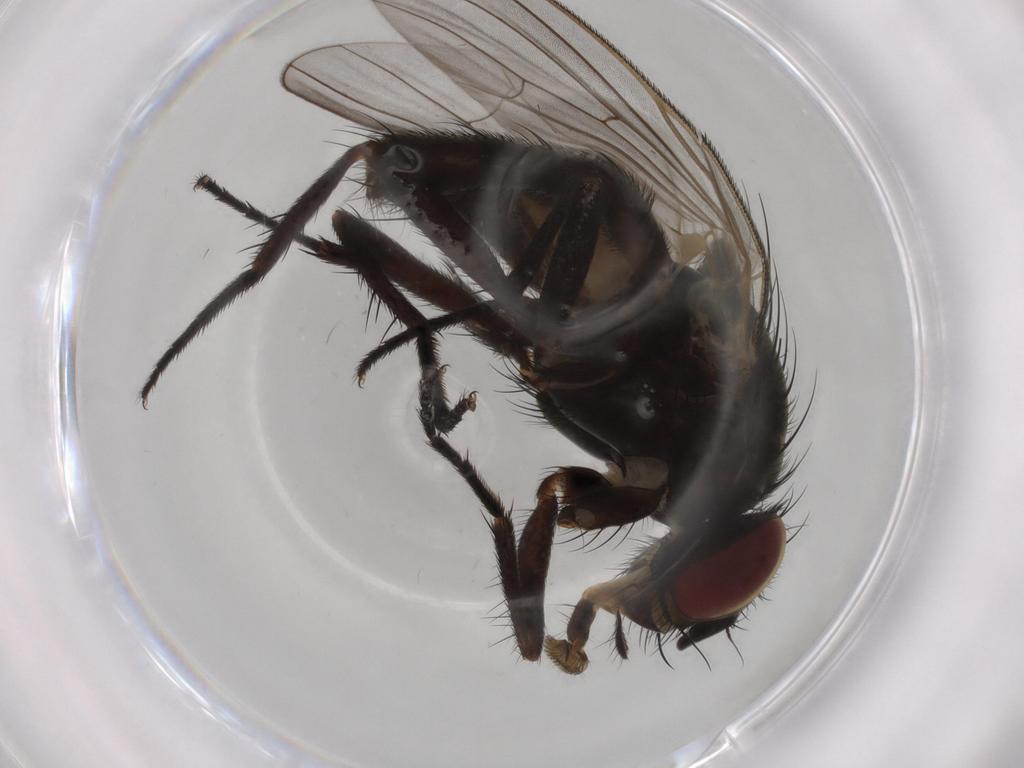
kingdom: Animalia
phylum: Arthropoda
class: Insecta
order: Diptera
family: Fannia
